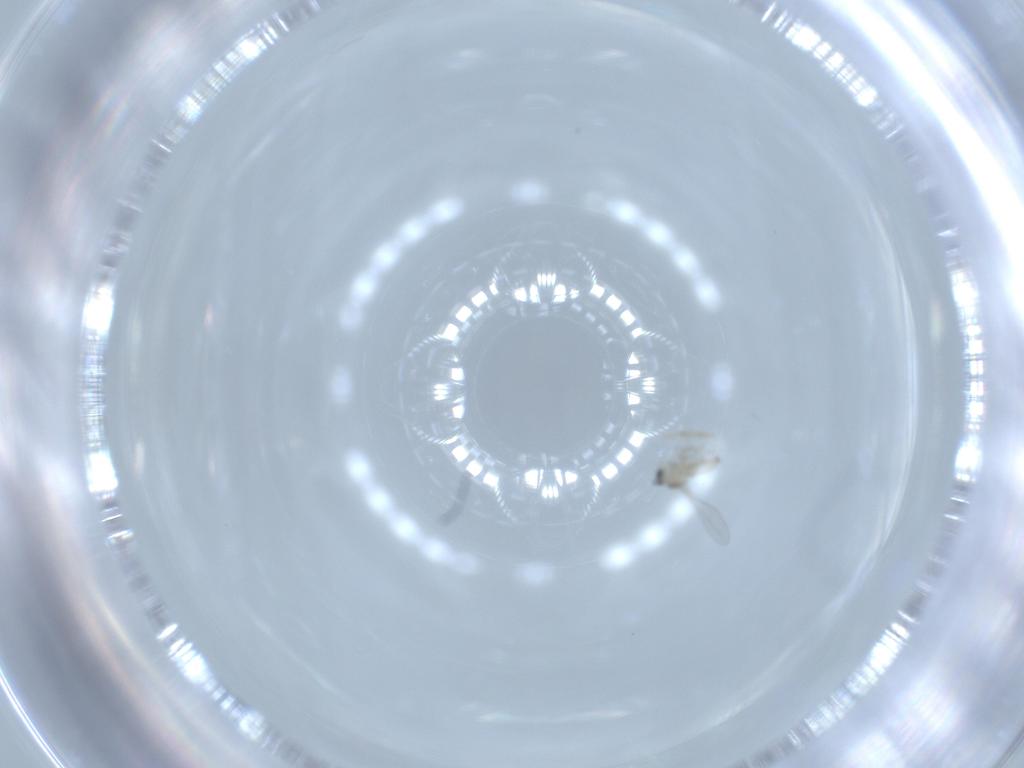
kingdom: Animalia
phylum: Arthropoda
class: Insecta
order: Diptera
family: Cecidomyiidae
